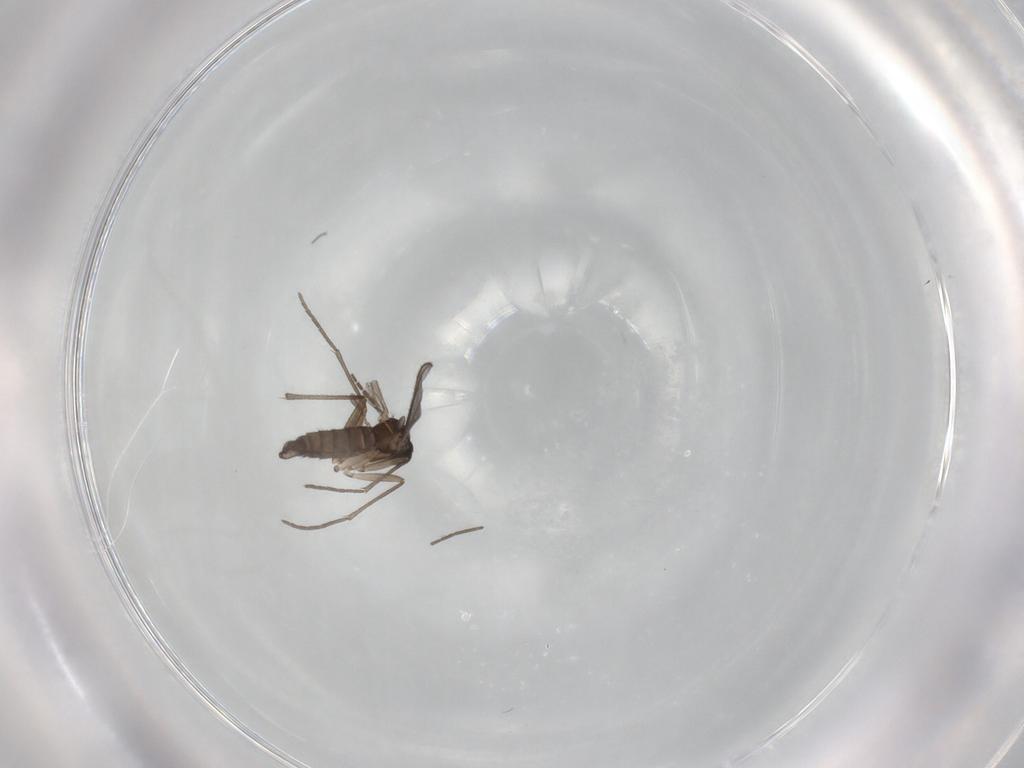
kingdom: Animalia
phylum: Arthropoda
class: Insecta
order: Diptera
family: Sciaridae
